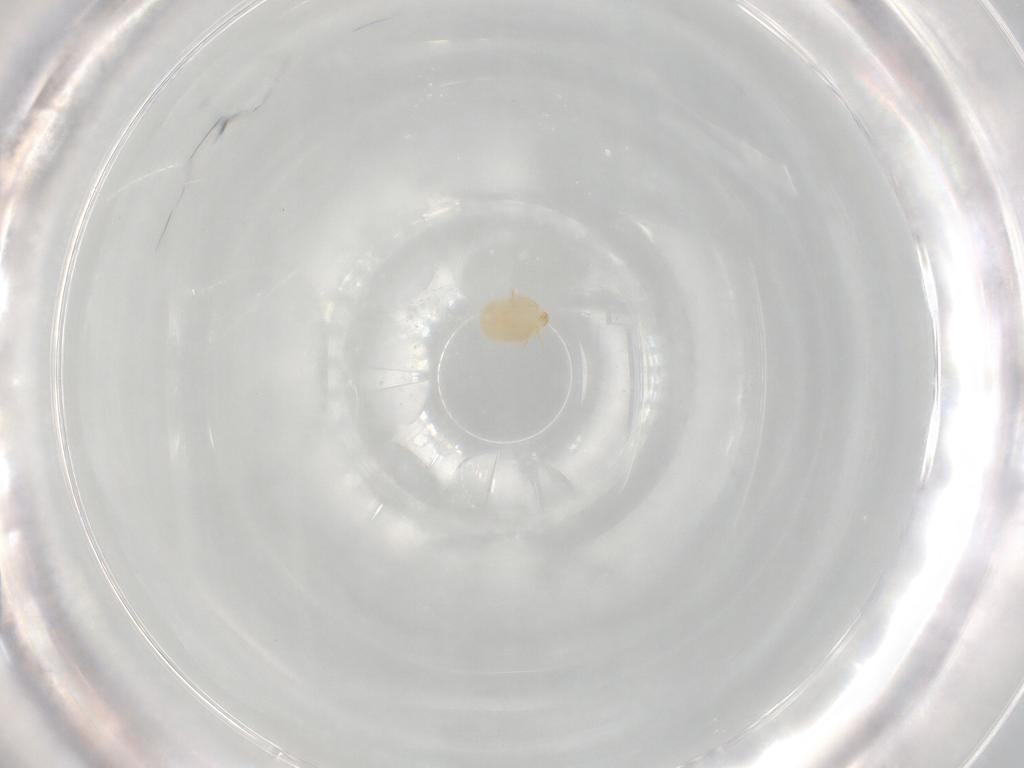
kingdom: Animalia
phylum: Arthropoda
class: Arachnida
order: Trombidiformes
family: Microtrombidiidae
